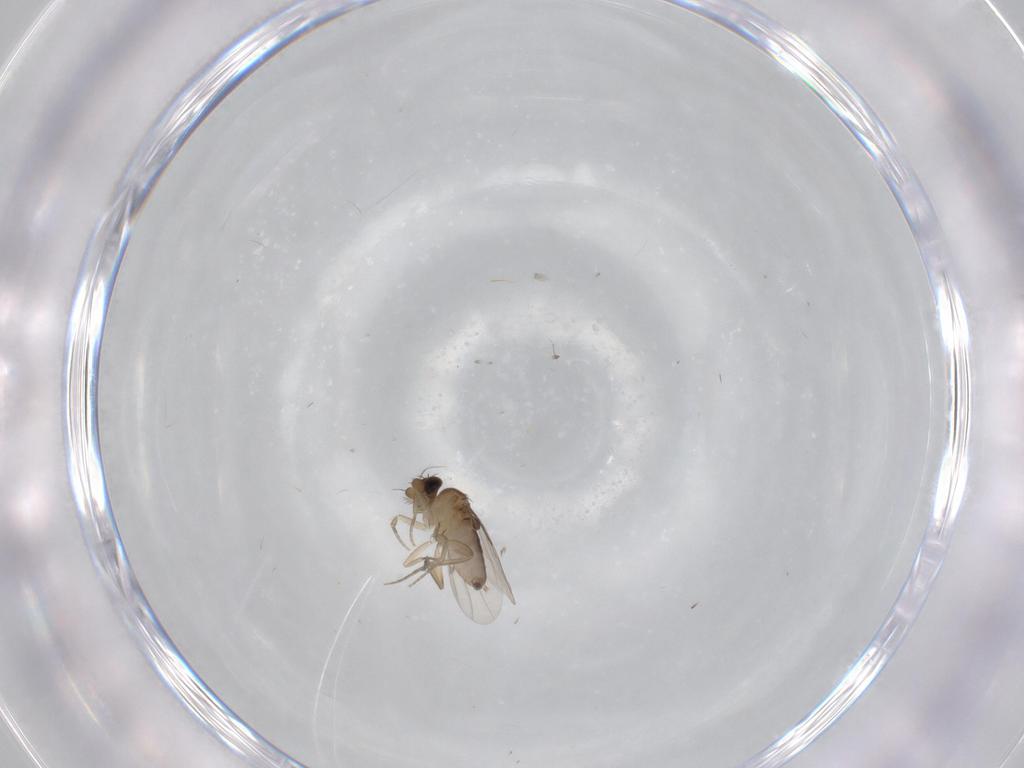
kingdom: Animalia
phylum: Arthropoda
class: Insecta
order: Diptera
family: Phoridae
